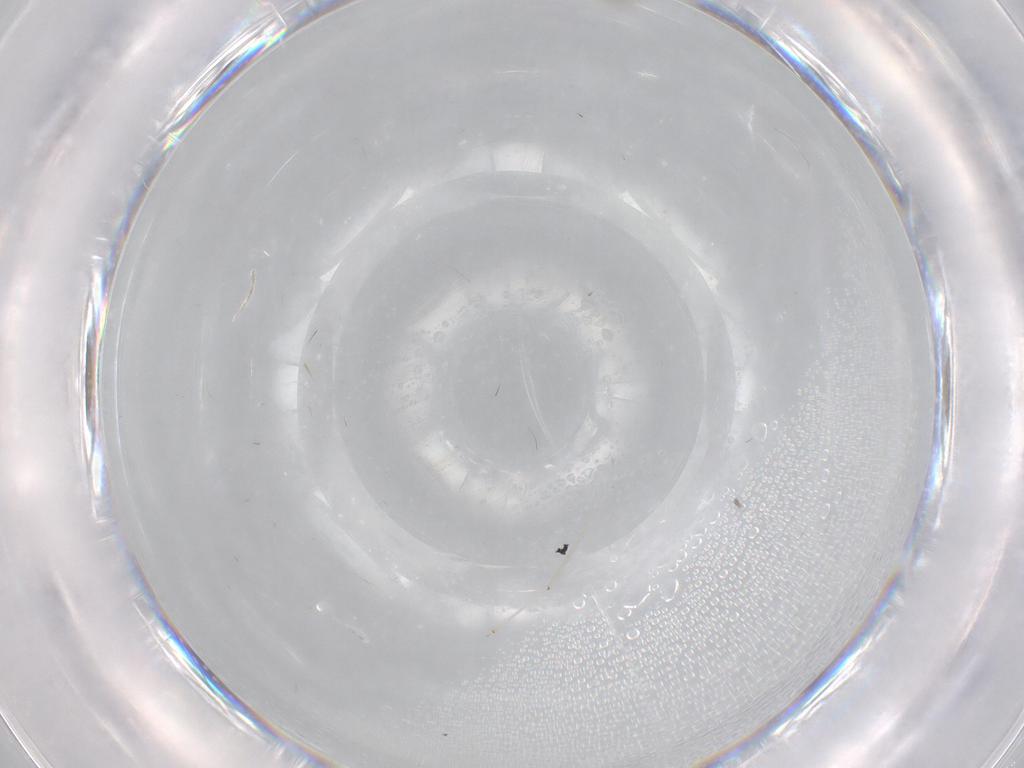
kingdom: Animalia
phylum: Arthropoda
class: Insecta
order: Diptera
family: Cecidomyiidae
